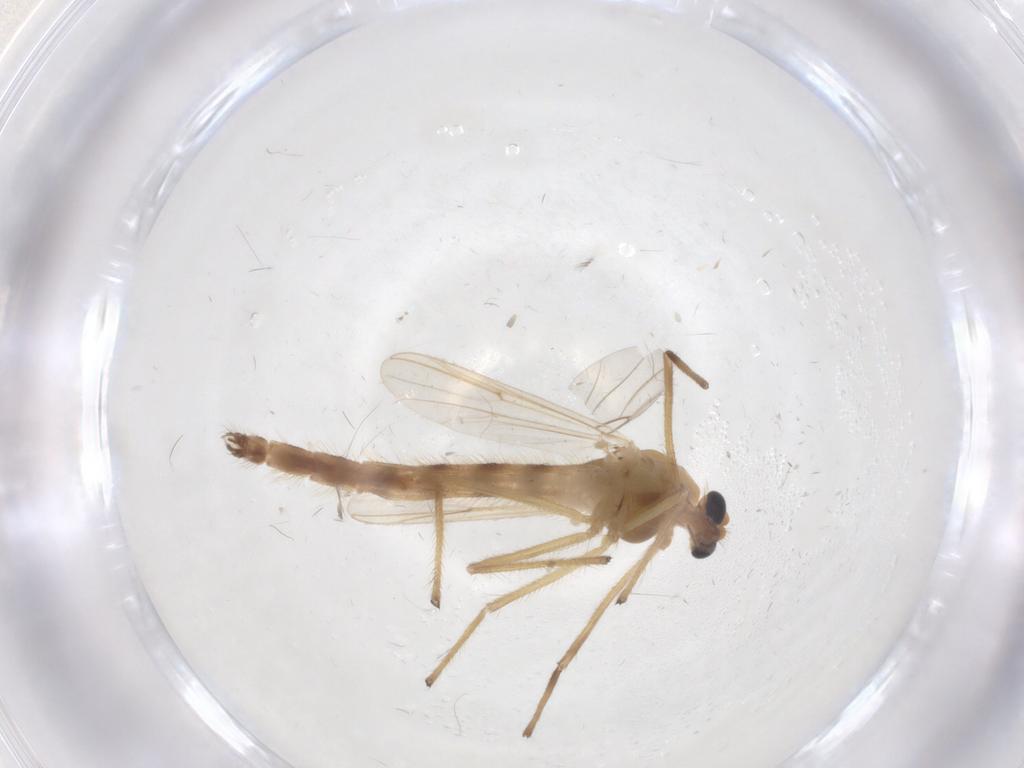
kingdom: Animalia
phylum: Arthropoda
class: Insecta
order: Diptera
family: Chironomidae
